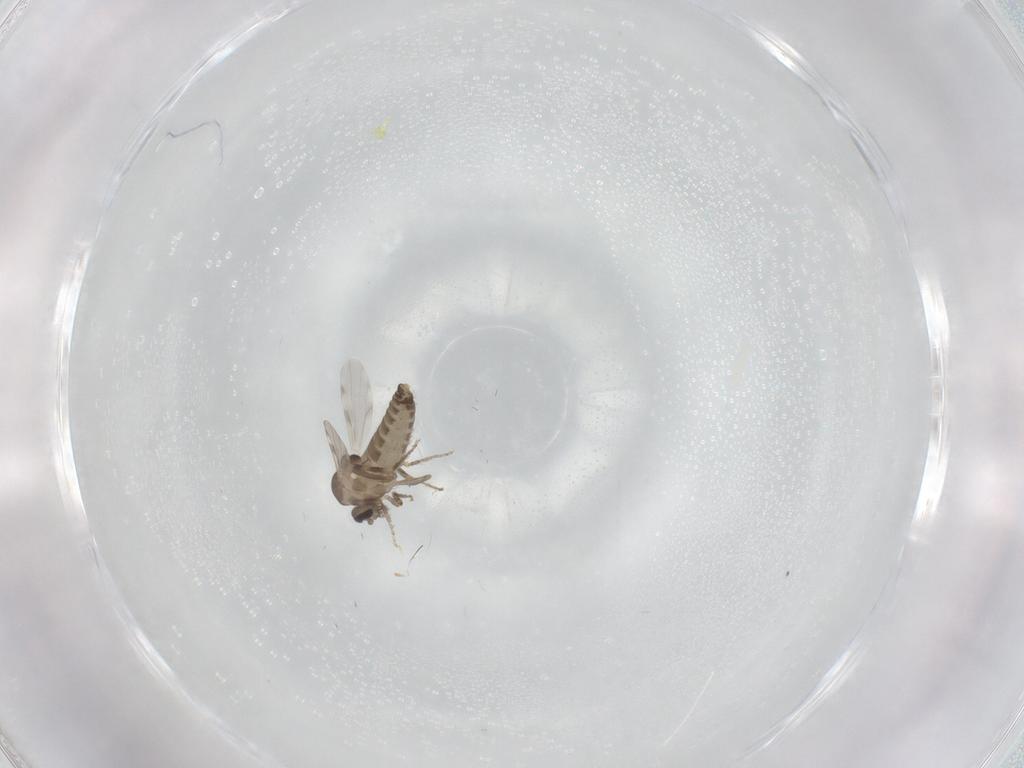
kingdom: Animalia
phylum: Arthropoda
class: Insecta
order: Diptera
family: Ceratopogonidae
